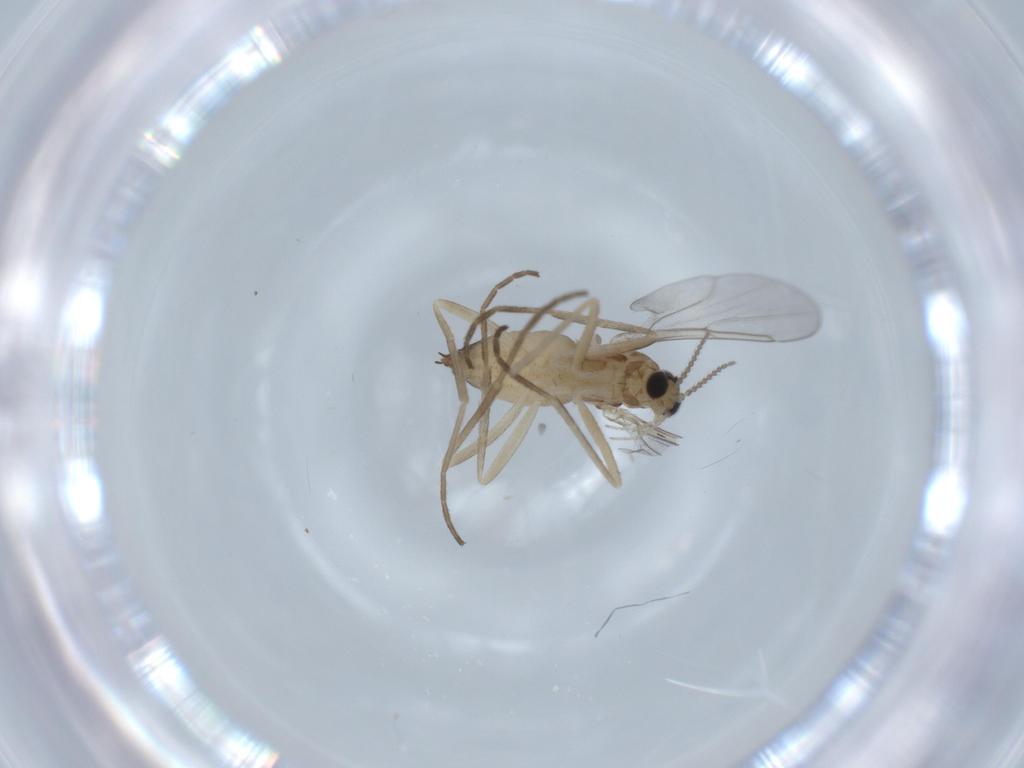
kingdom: Animalia
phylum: Arthropoda
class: Insecta
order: Diptera
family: Cecidomyiidae
